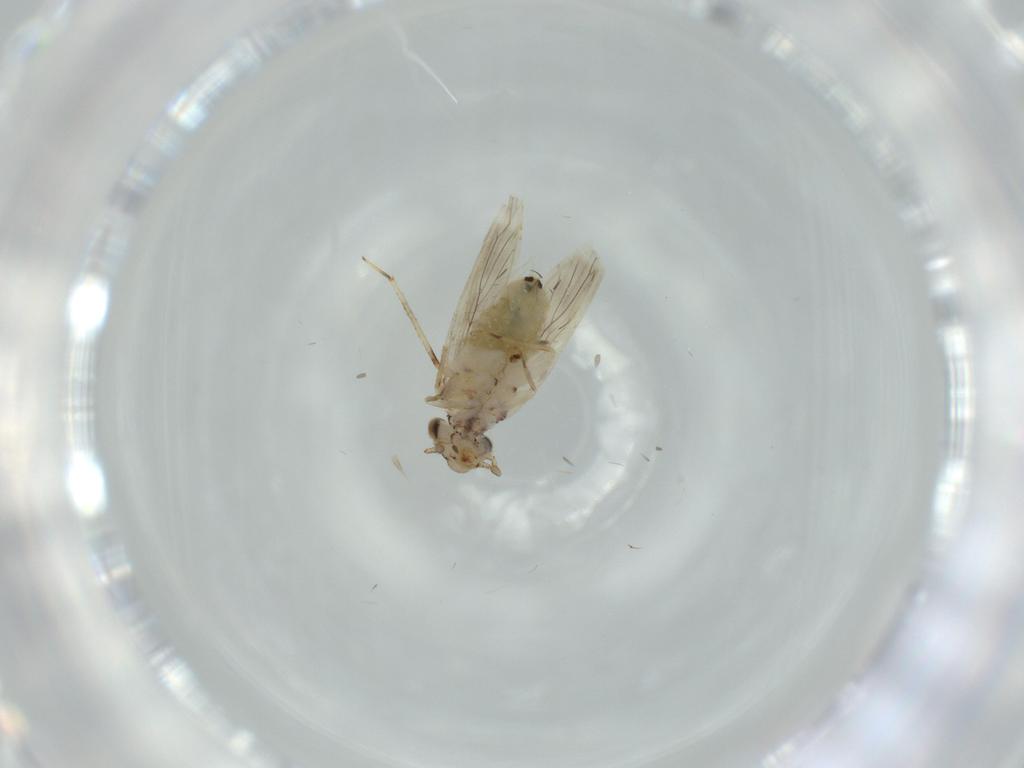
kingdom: Animalia
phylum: Arthropoda
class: Insecta
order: Psocodea
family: Lepidopsocidae
